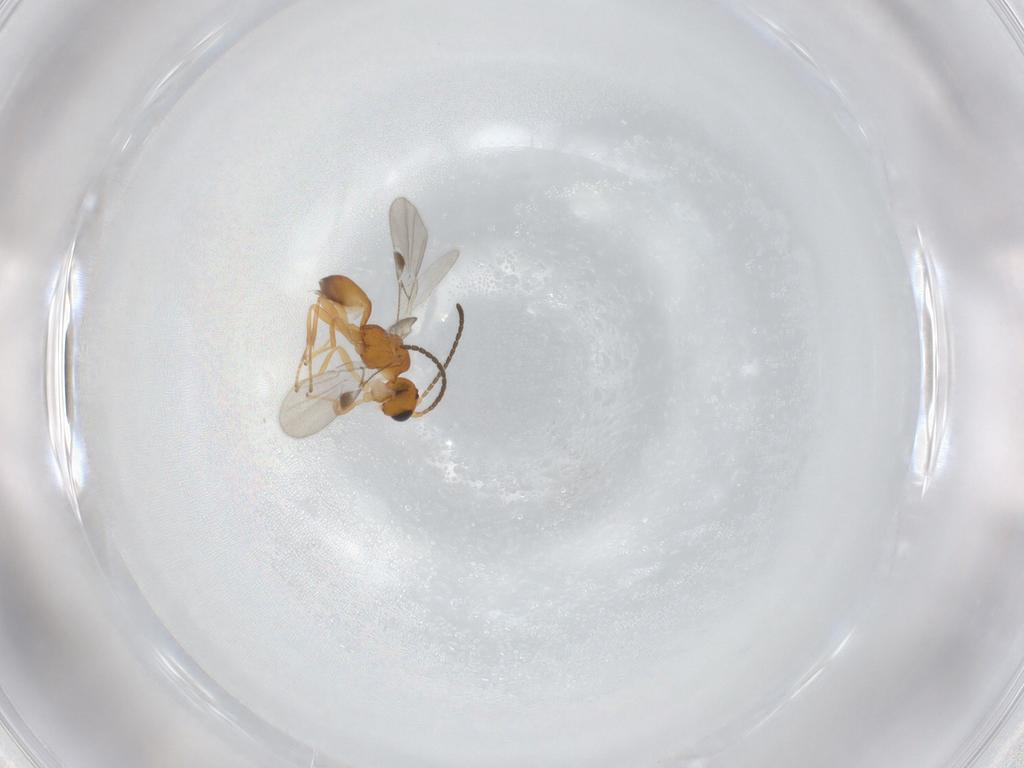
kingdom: Animalia
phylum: Arthropoda
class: Insecta
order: Hymenoptera
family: Braconidae
